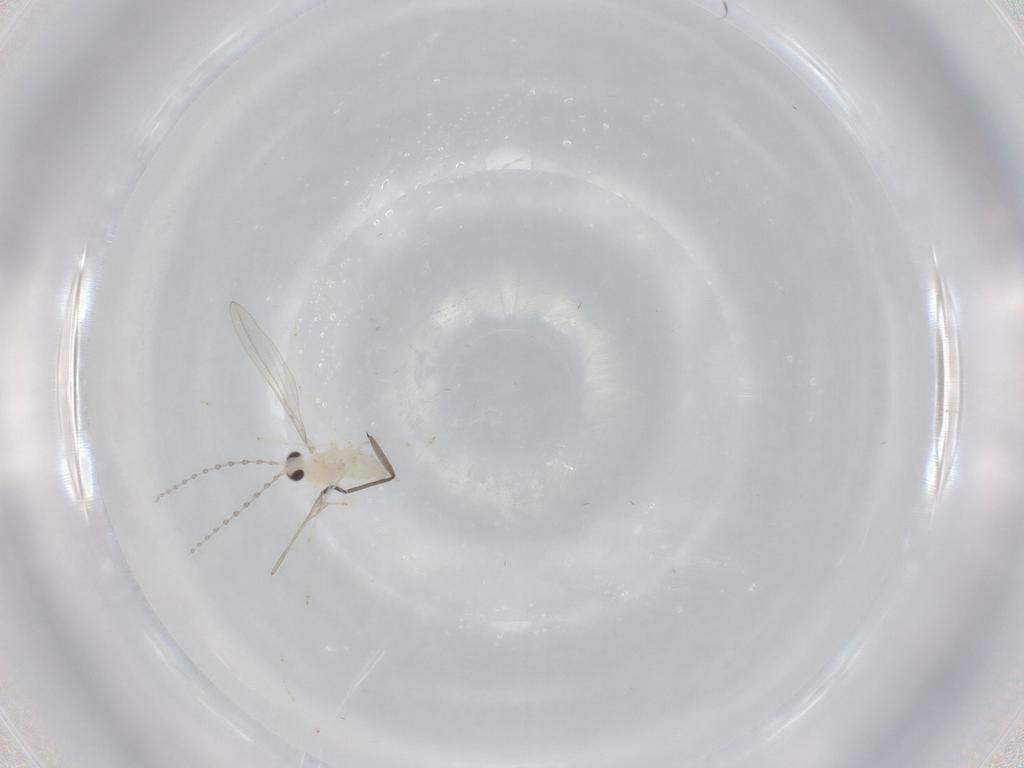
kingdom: Animalia
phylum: Arthropoda
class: Insecta
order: Diptera
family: Cecidomyiidae
